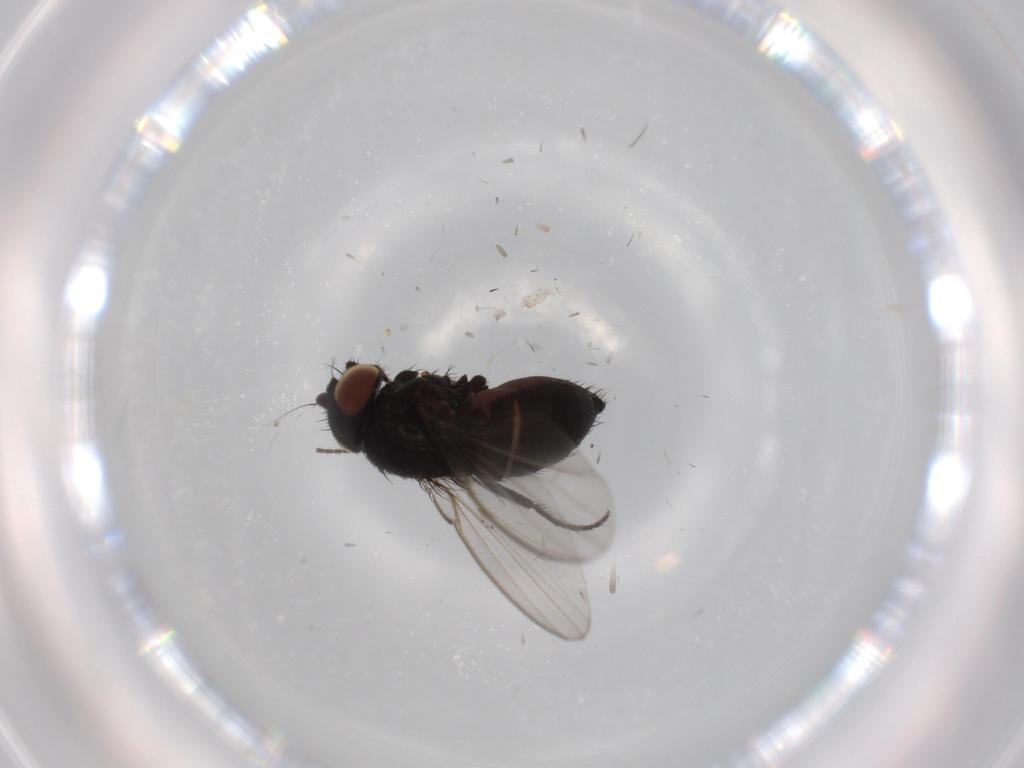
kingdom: Animalia
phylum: Arthropoda
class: Insecta
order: Diptera
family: Milichiidae
